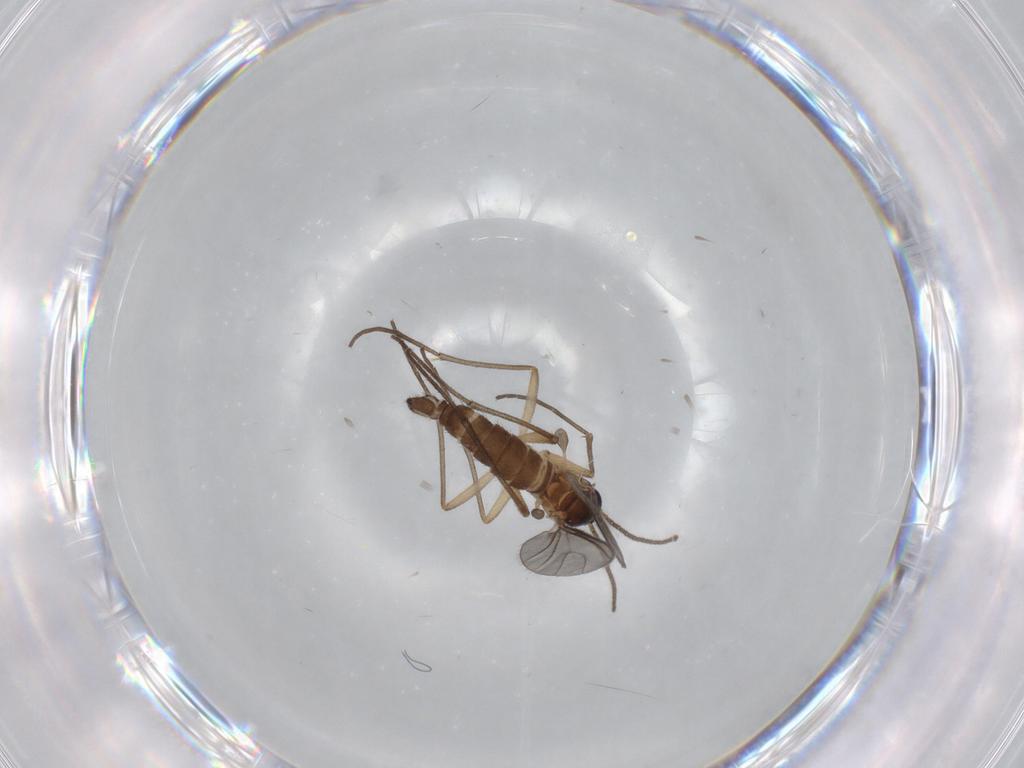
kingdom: Animalia
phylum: Arthropoda
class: Insecta
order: Diptera
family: Sciaridae
